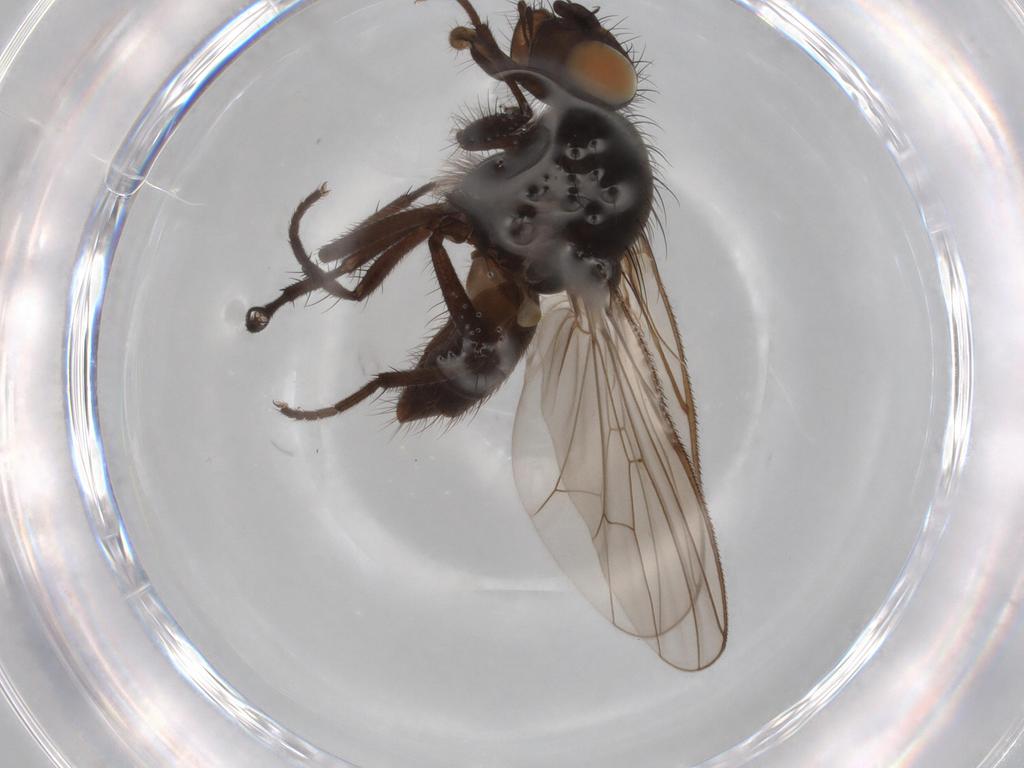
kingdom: Animalia
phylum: Arthropoda
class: Insecta
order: Diptera
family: Anthomyiidae
